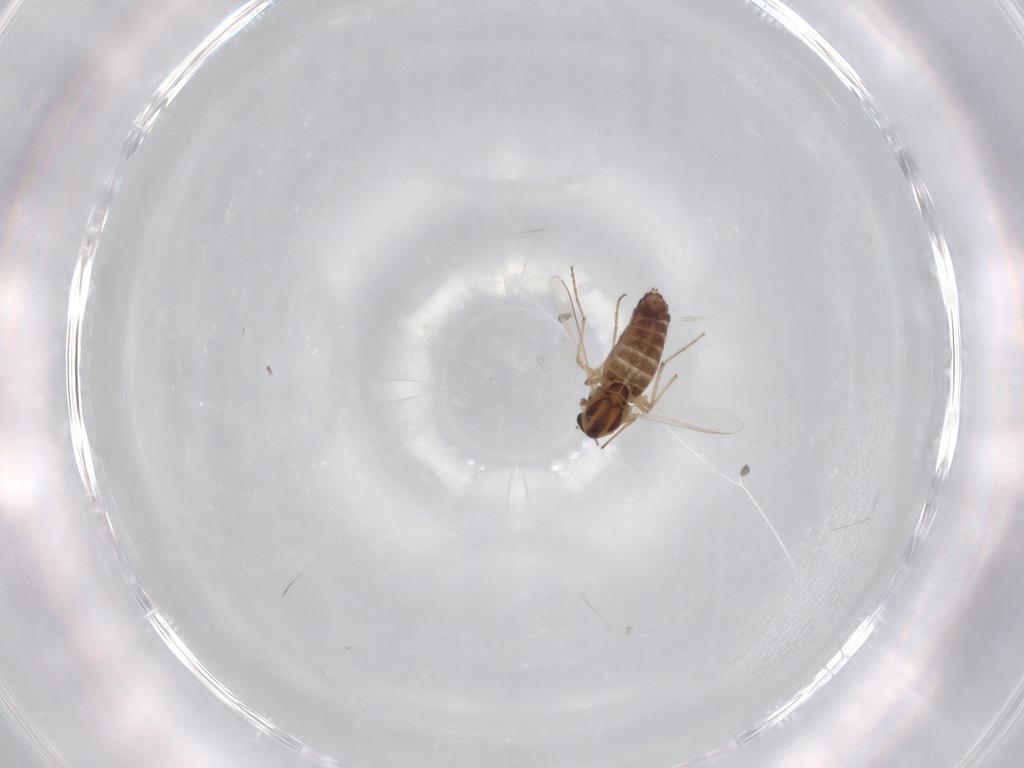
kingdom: Animalia
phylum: Arthropoda
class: Insecta
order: Diptera
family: Chironomidae
